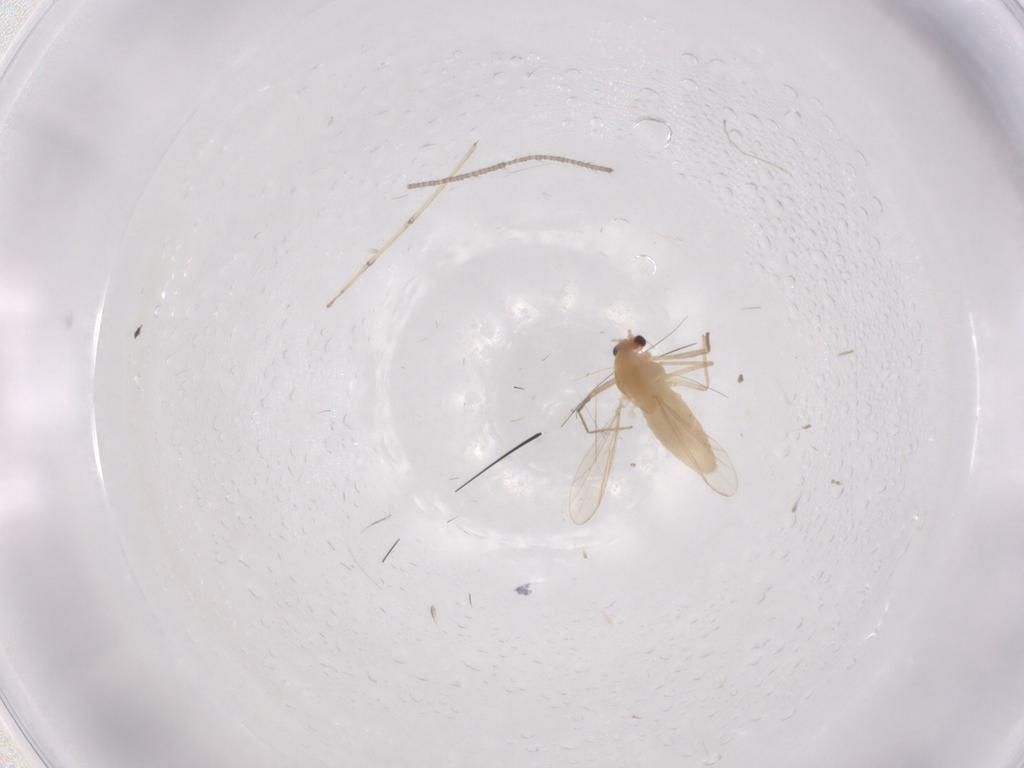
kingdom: Animalia
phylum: Arthropoda
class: Insecta
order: Diptera
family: Chironomidae
